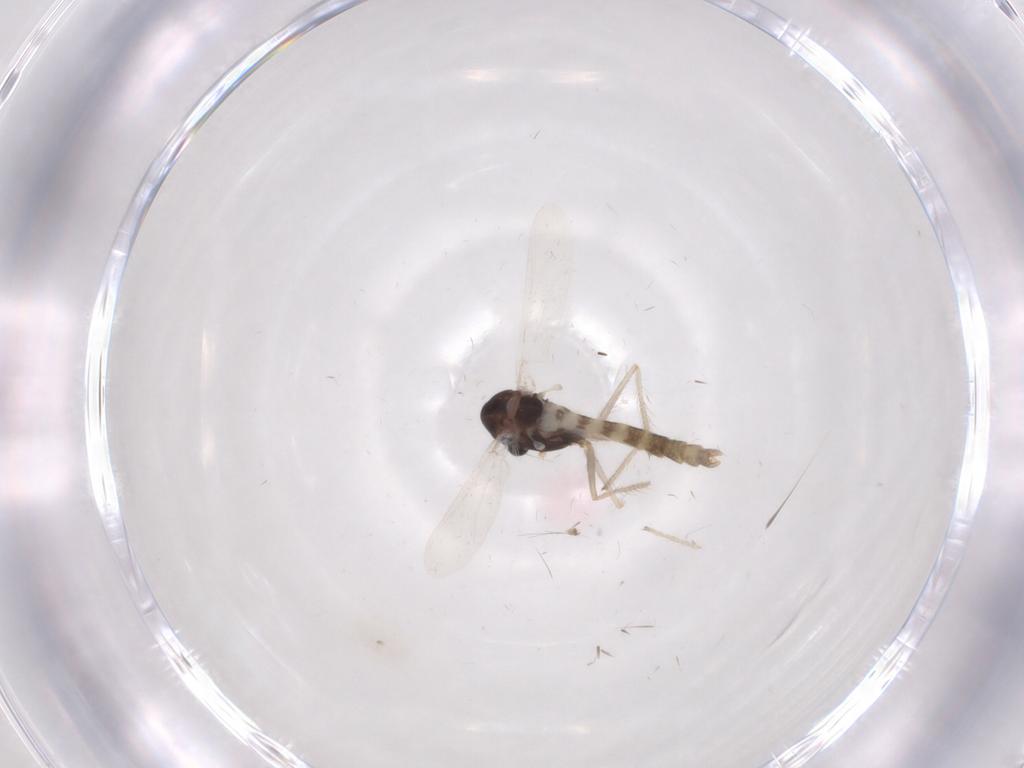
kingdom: Animalia
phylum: Arthropoda
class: Insecta
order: Diptera
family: Chironomidae
